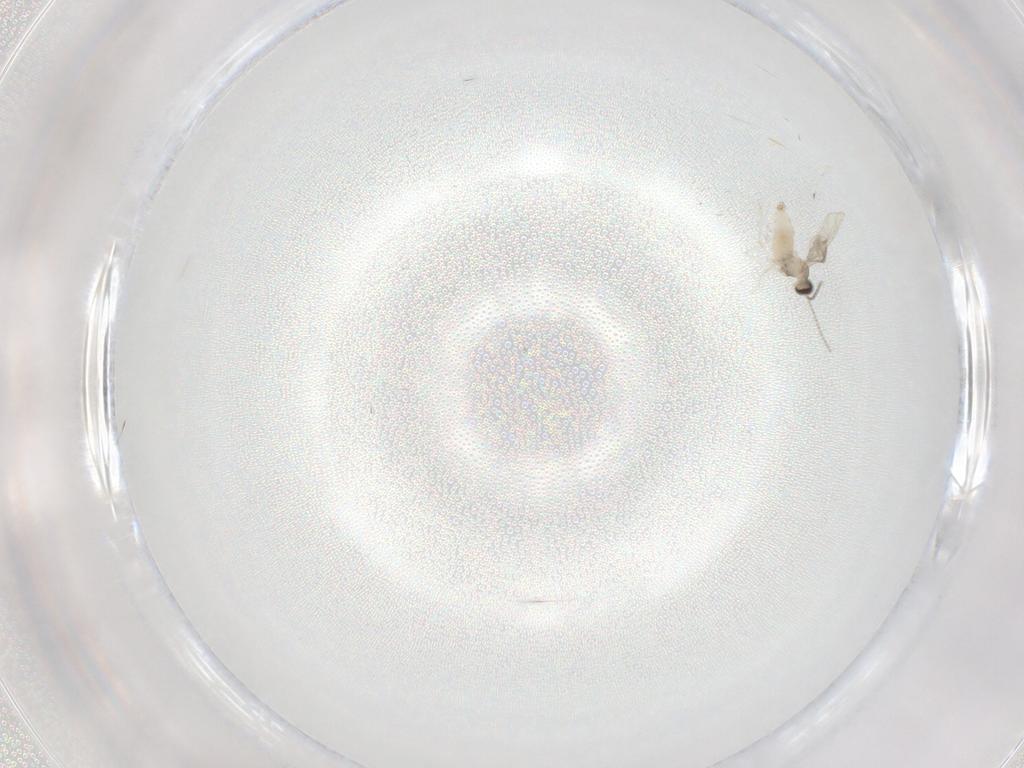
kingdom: Animalia
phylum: Arthropoda
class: Insecta
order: Diptera
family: Ceratopogonidae
